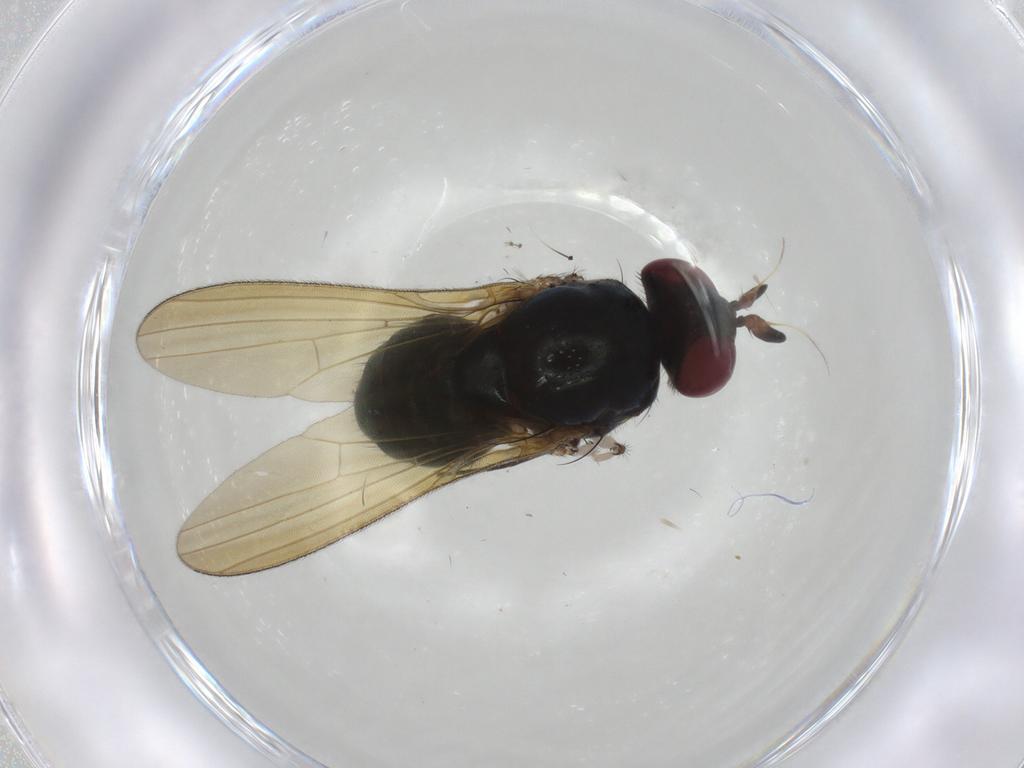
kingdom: Animalia
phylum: Arthropoda
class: Insecta
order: Diptera
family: Sciaridae
